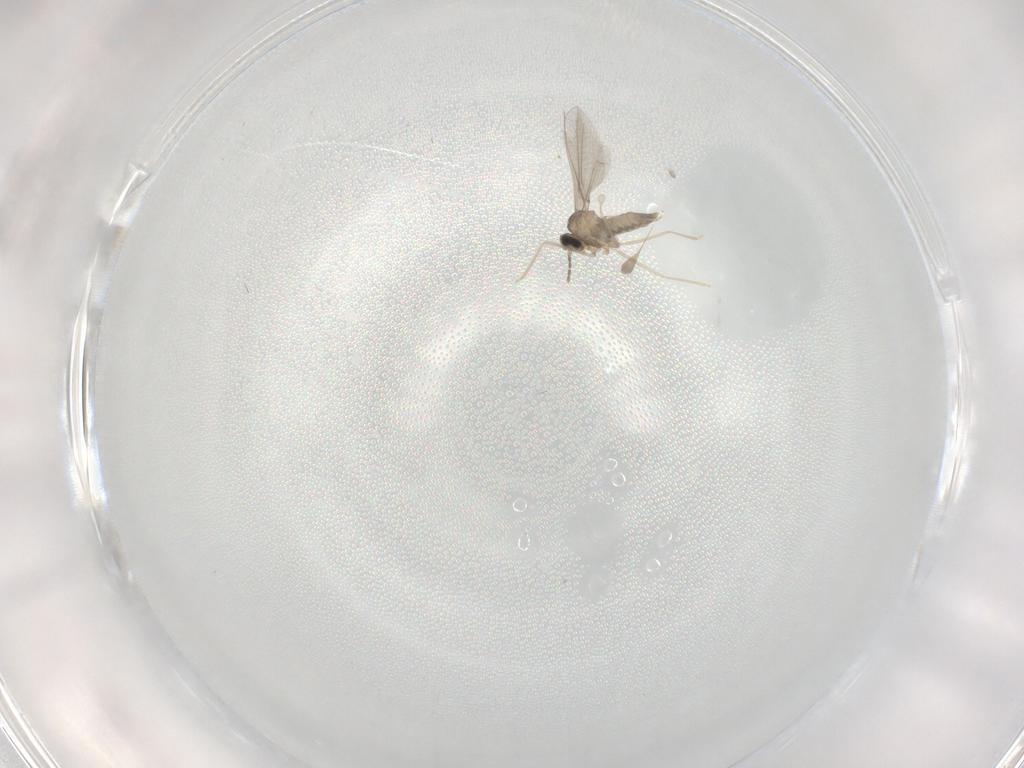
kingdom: Animalia
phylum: Arthropoda
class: Insecta
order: Diptera
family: Cecidomyiidae
